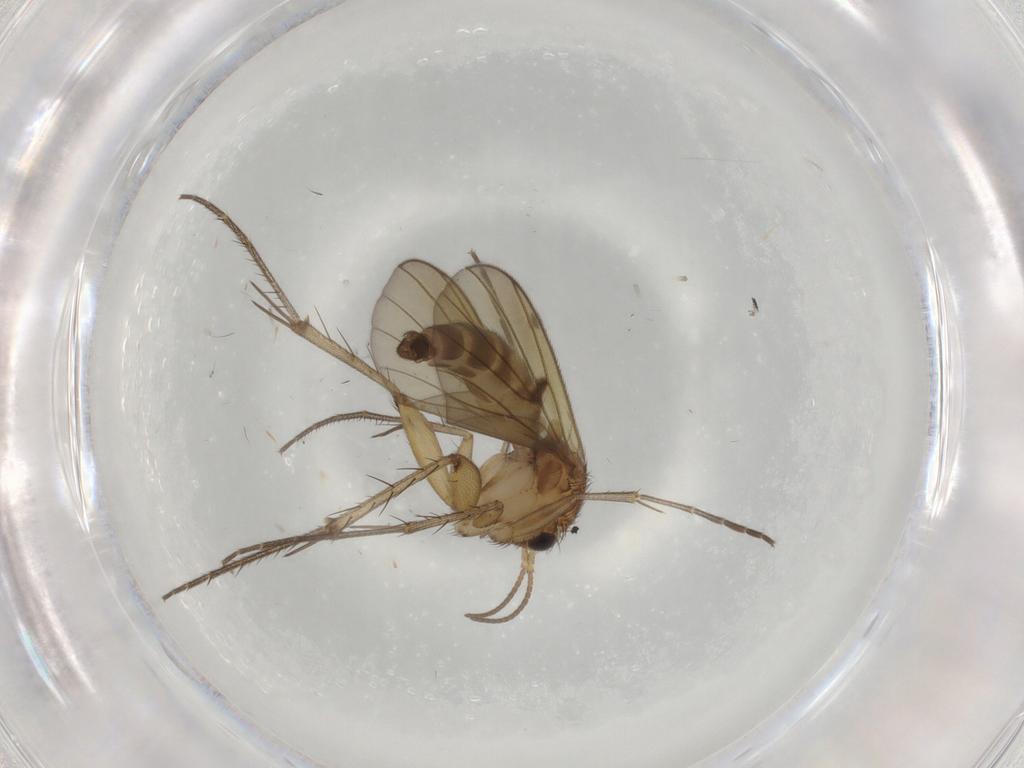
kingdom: Animalia
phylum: Arthropoda
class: Insecta
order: Diptera
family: Mycetophilidae
